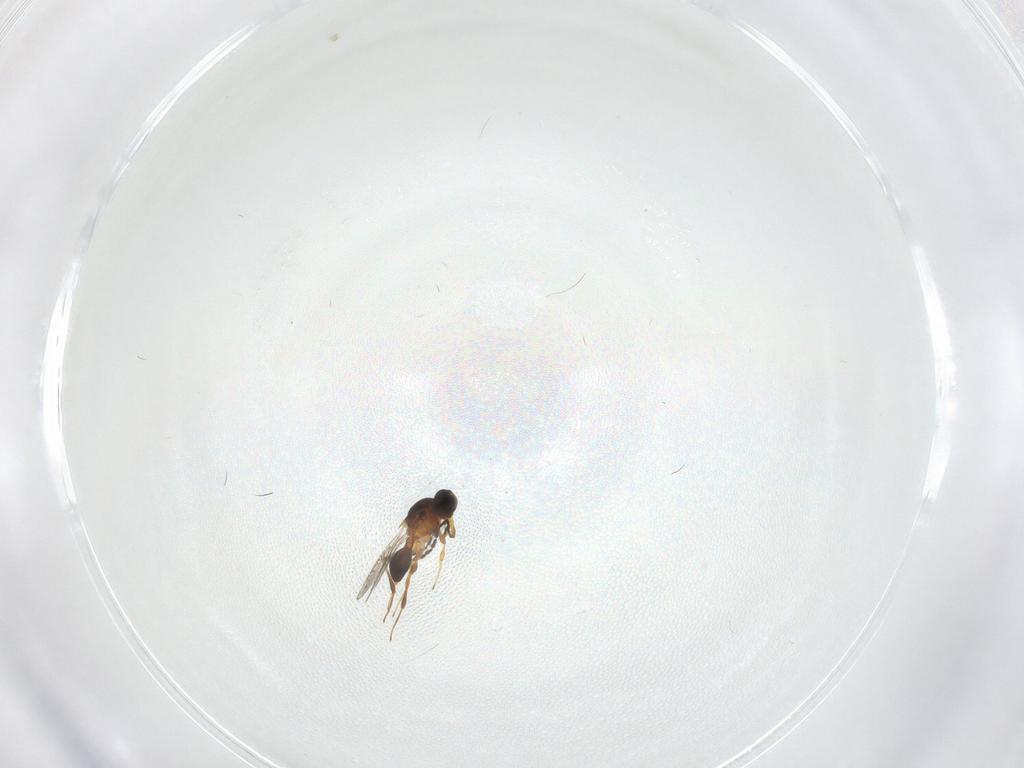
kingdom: Animalia
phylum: Arthropoda
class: Insecta
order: Hymenoptera
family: Platygastridae
